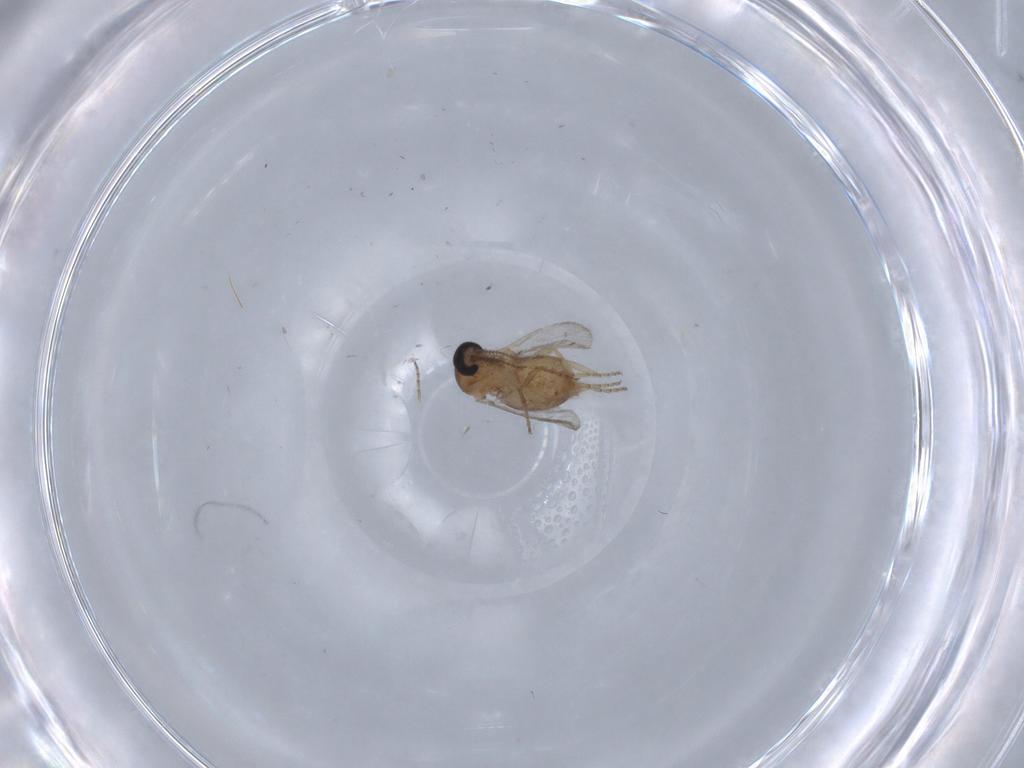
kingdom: Animalia
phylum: Arthropoda
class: Insecta
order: Diptera
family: Ceratopogonidae
